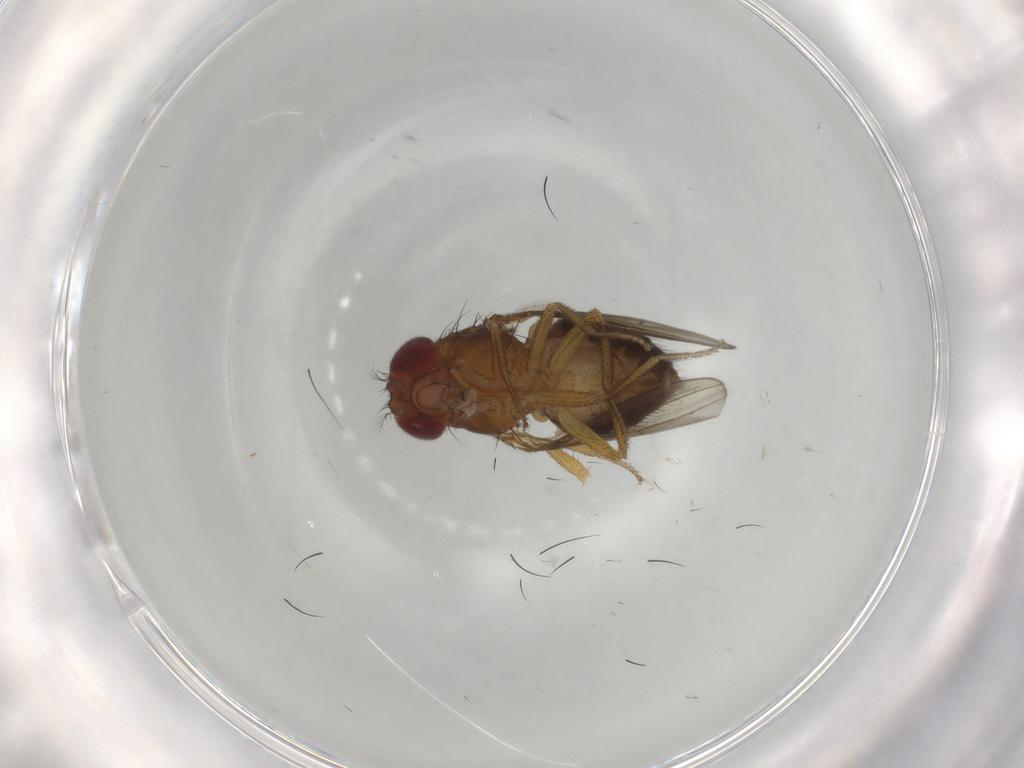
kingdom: Animalia
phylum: Arthropoda
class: Insecta
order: Diptera
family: Drosophilidae
